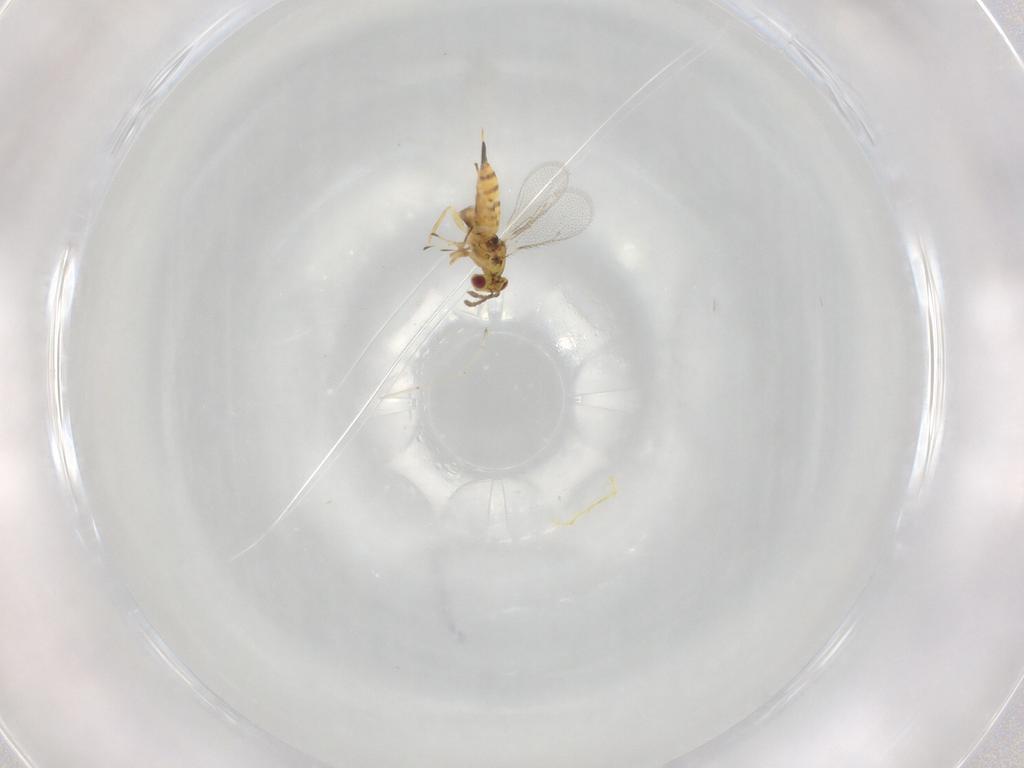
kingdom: Animalia
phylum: Arthropoda
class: Insecta
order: Hymenoptera
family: Eulophidae
